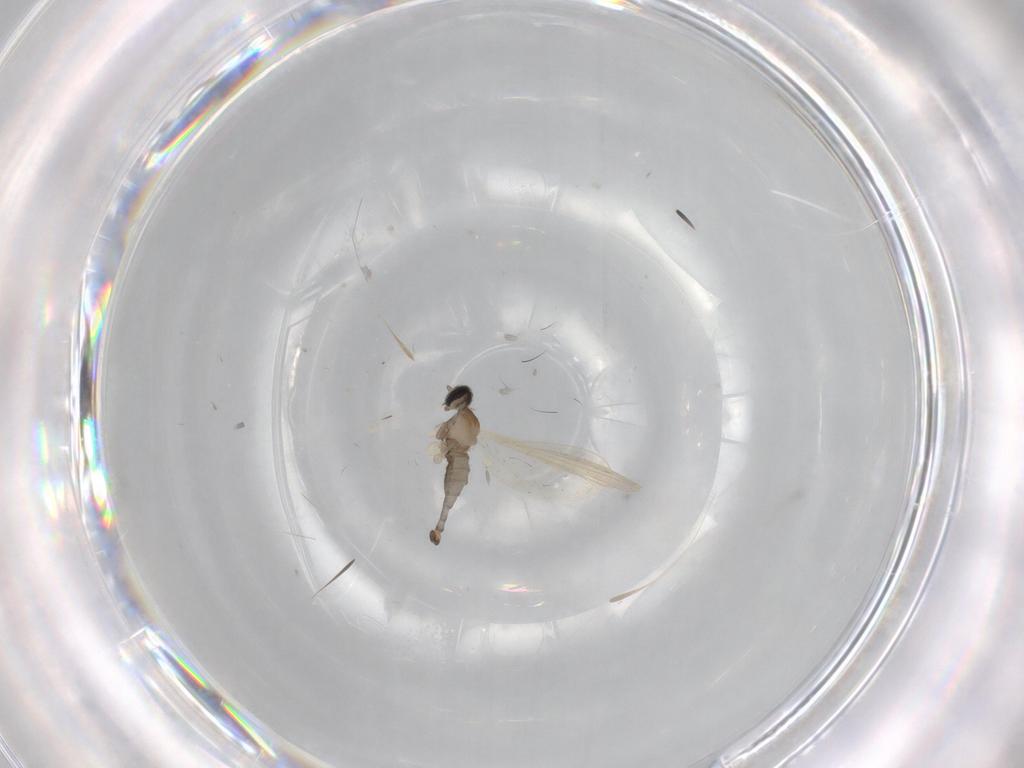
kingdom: Animalia
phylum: Arthropoda
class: Insecta
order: Diptera
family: Cecidomyiidae
